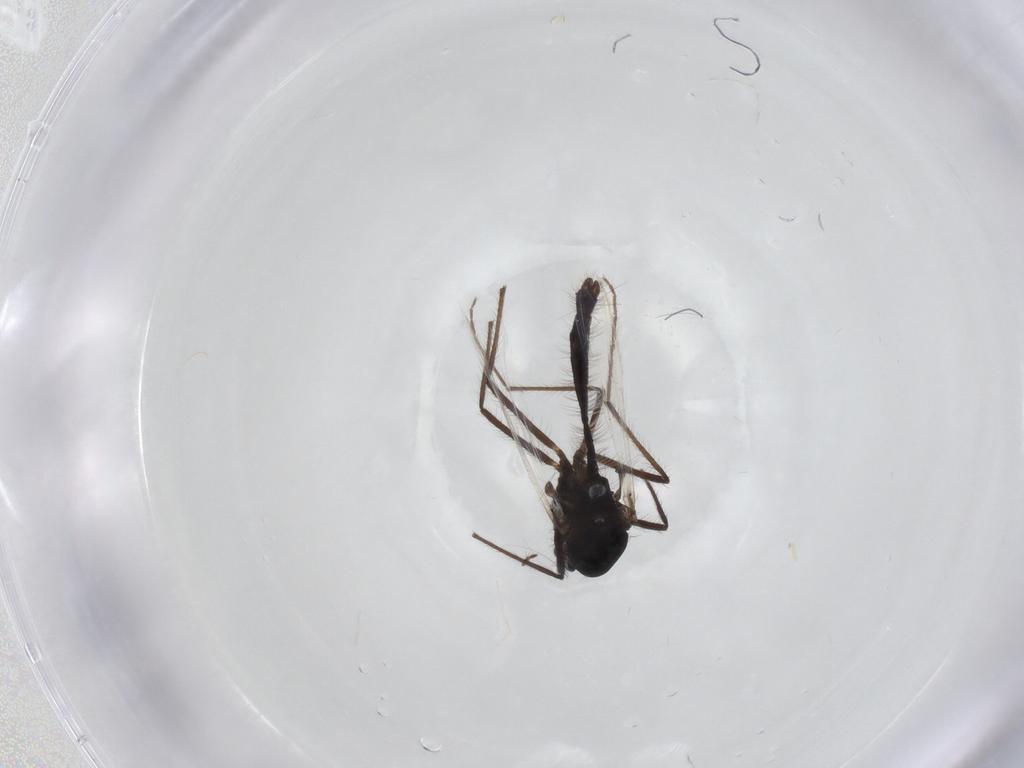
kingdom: Animalia
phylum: Arthropoda
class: Insecta
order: Diptera
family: Chironomidae
